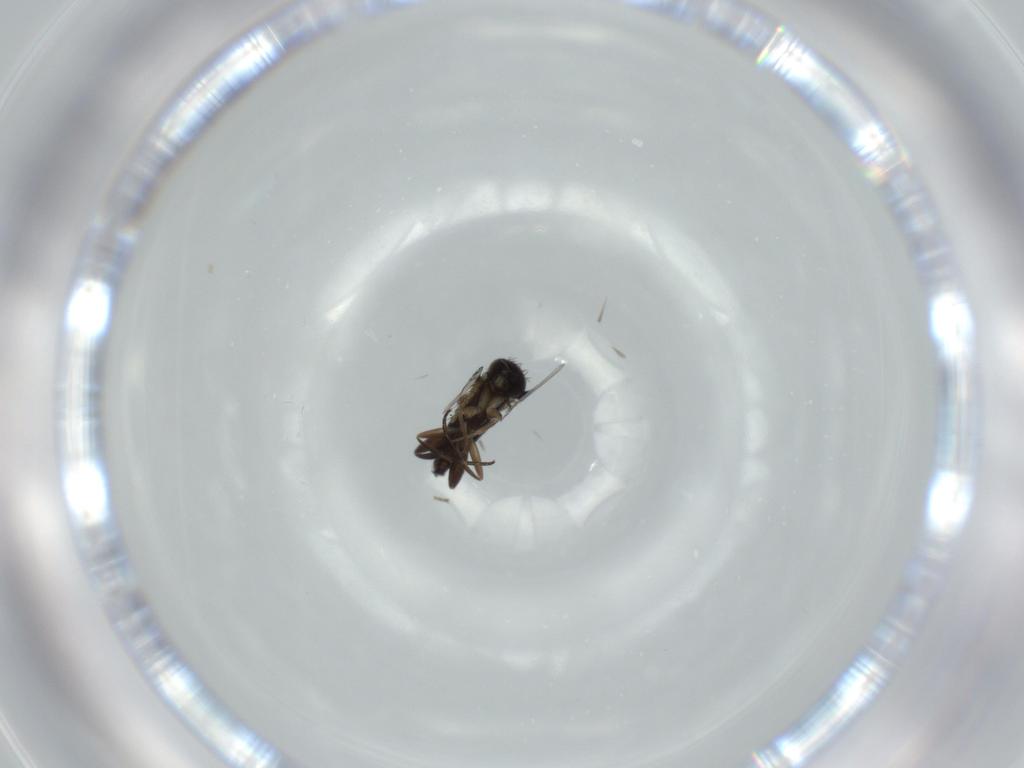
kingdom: Animalia
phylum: Arthropoda
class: Insecta
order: Diptera
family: Phoridae
